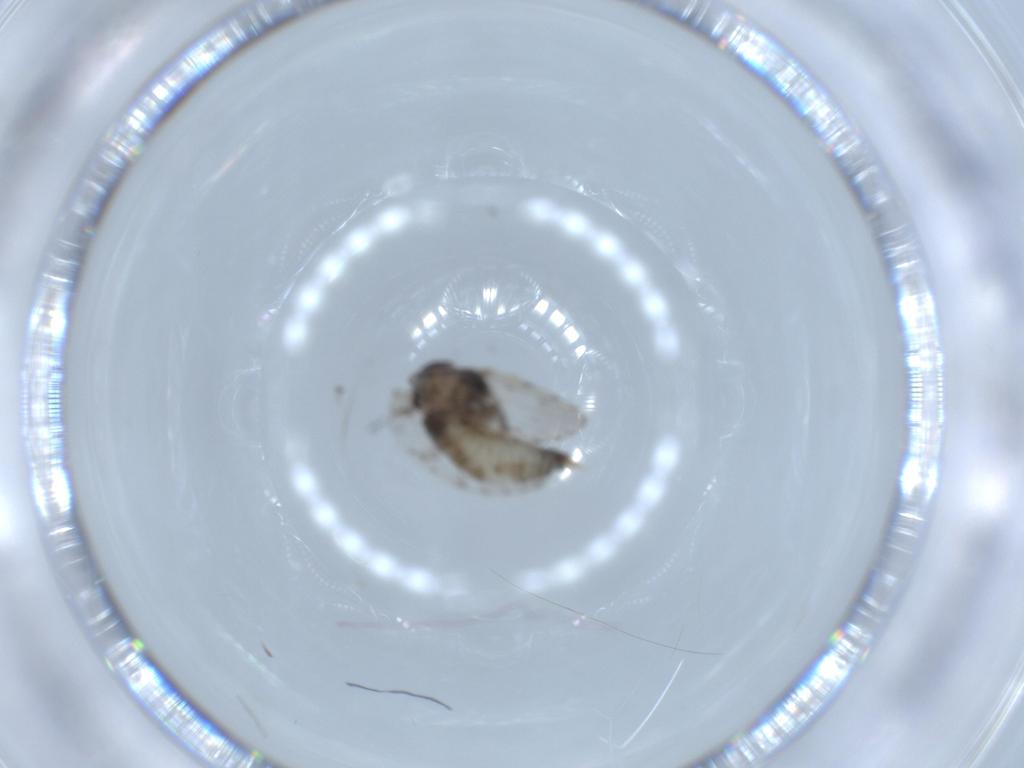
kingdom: Animalia
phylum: Arthropoda
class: Insecta
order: Diptera
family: Psychodidae
